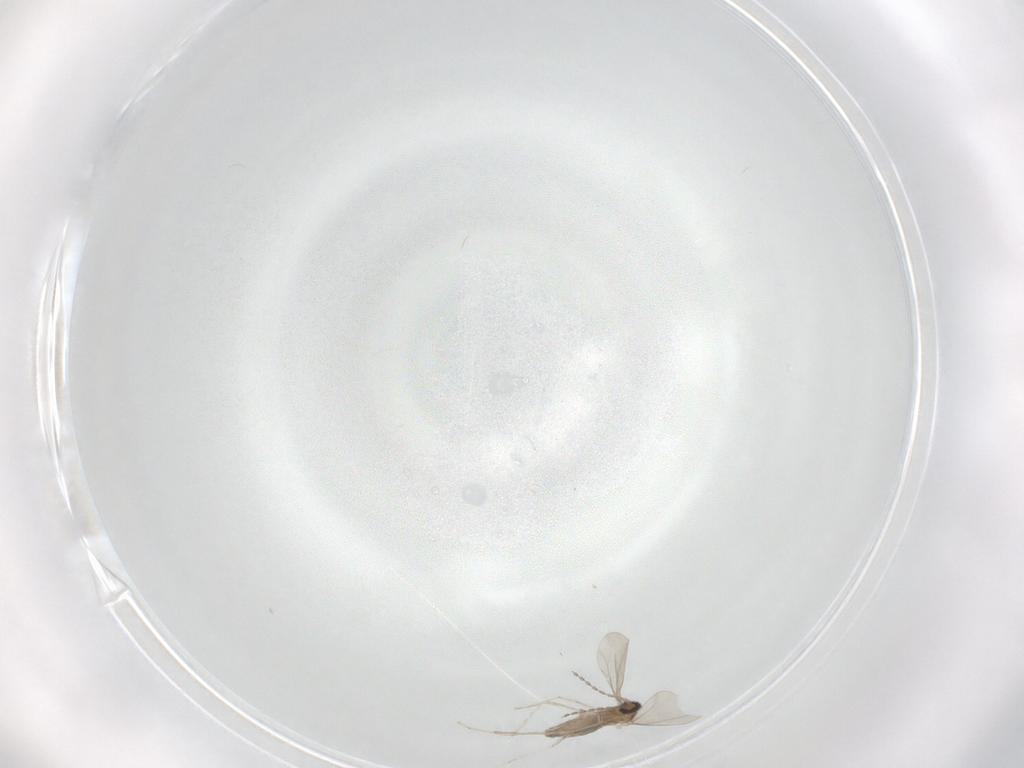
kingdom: Animalia
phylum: Arthropoda
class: Insecta
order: Diptera
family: Cecidomyiidae
